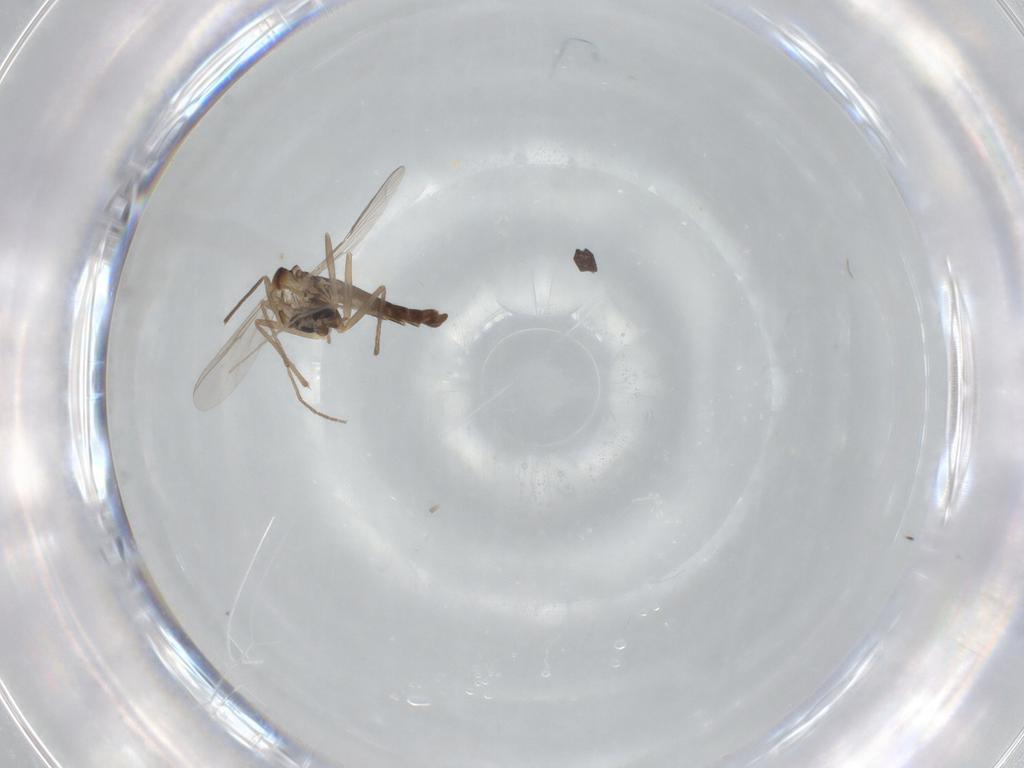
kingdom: Animalia
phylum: Arthropoda
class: Insecta
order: Diptera
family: Chironomidae
